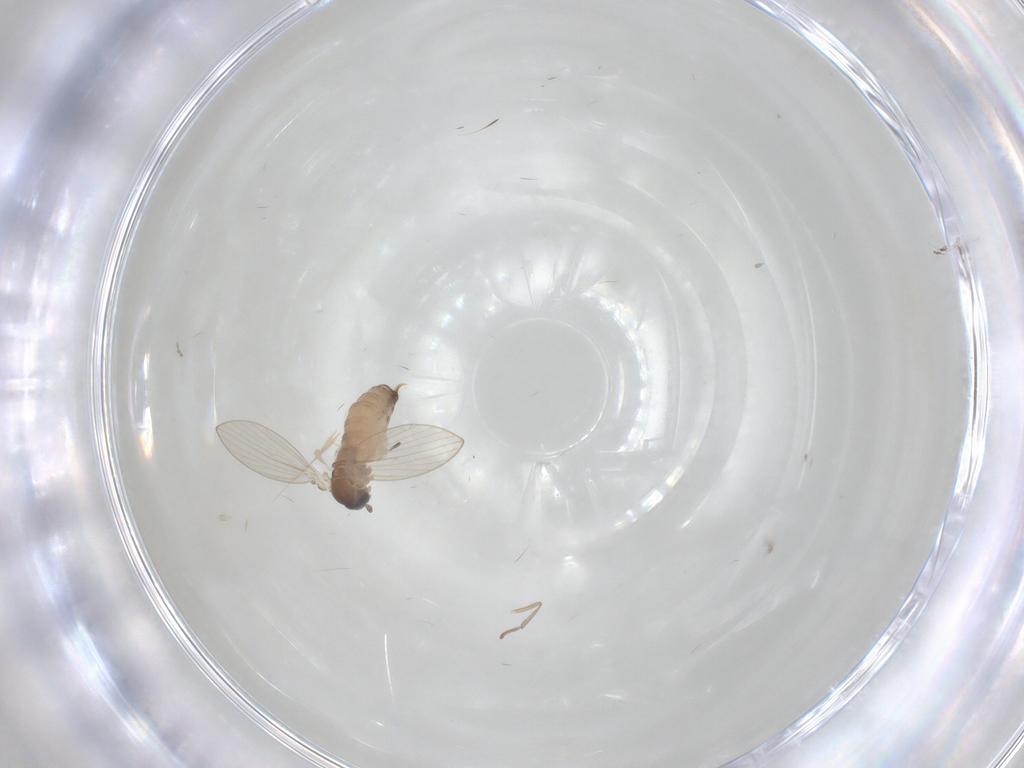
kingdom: Animalia
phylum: Arthropoda
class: Insecta
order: Diptera
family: Psychodidae
